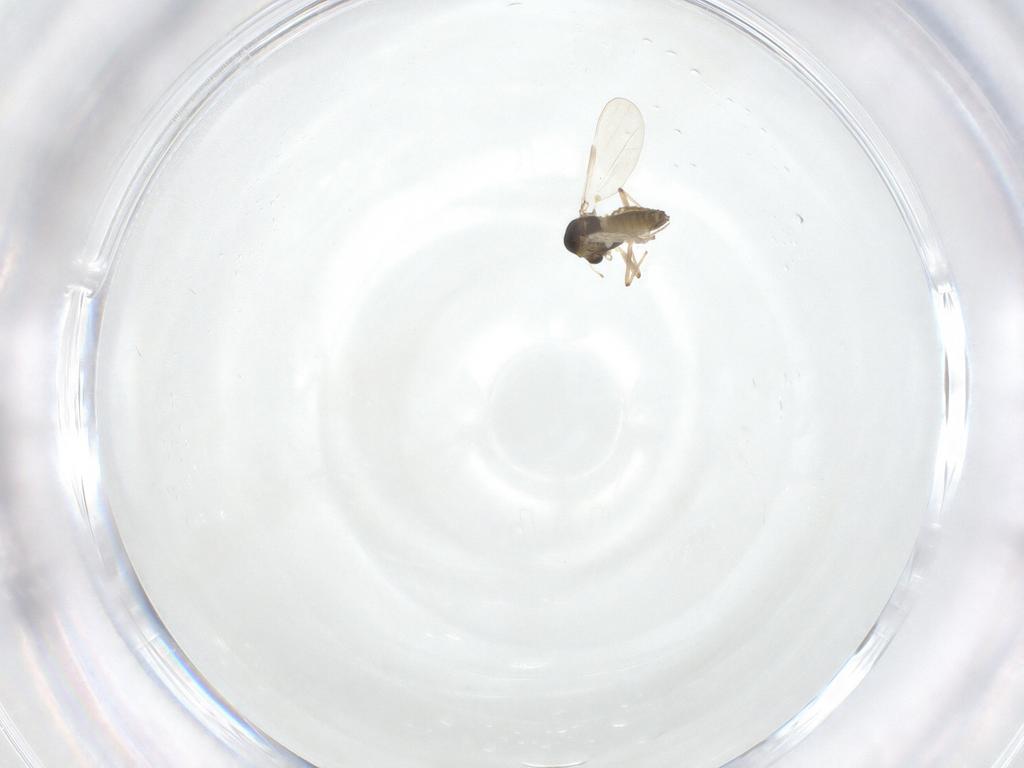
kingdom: Animalia
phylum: Arthropoda
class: Insecta
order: Diptera
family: Chironomidae
